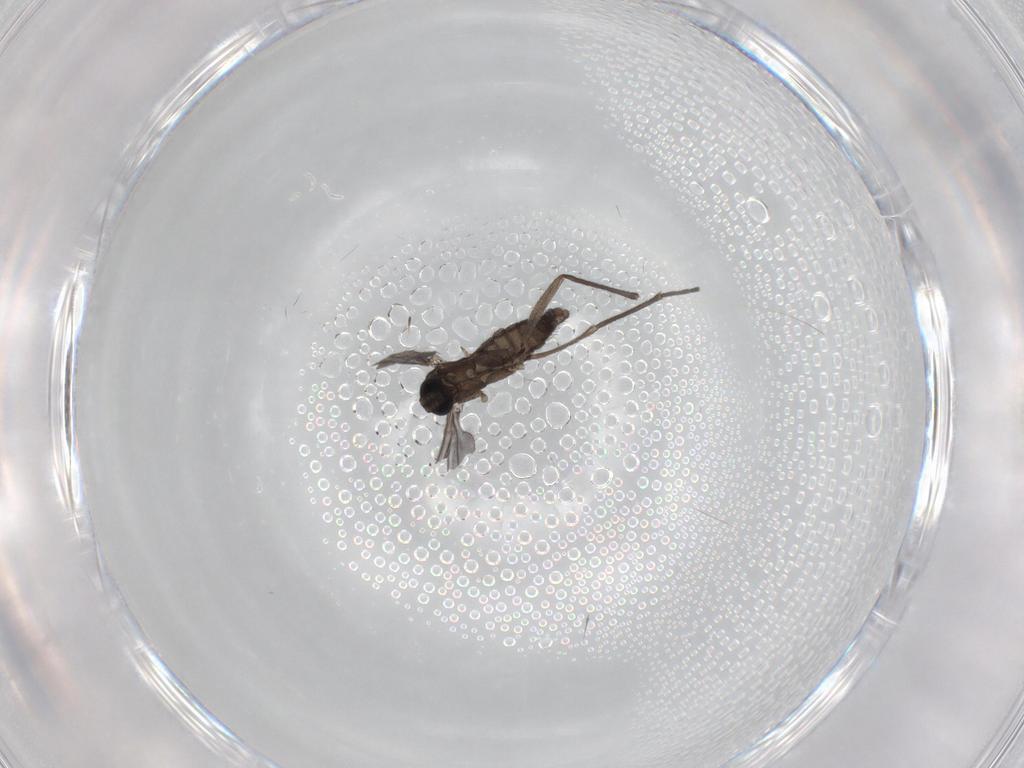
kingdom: Animalia
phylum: Arthropoda
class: Insecta
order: Diptera
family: Sciaridae
